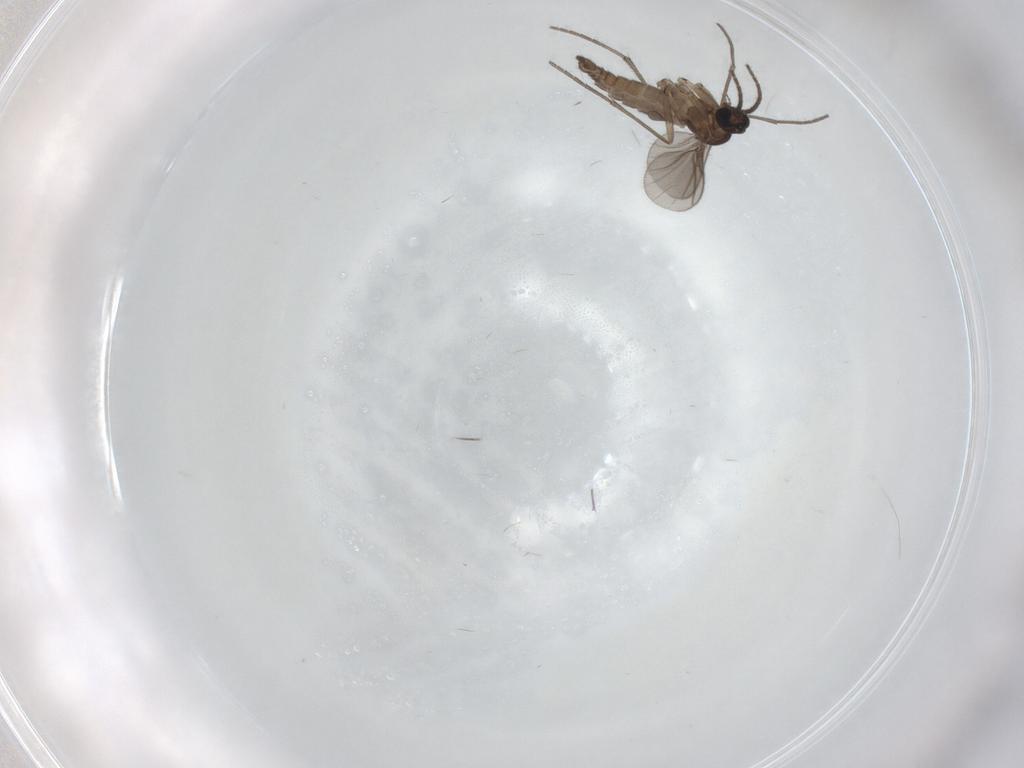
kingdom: Animalia
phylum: Arthropoda
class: Insecta
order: Diptera
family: Sciaridae
